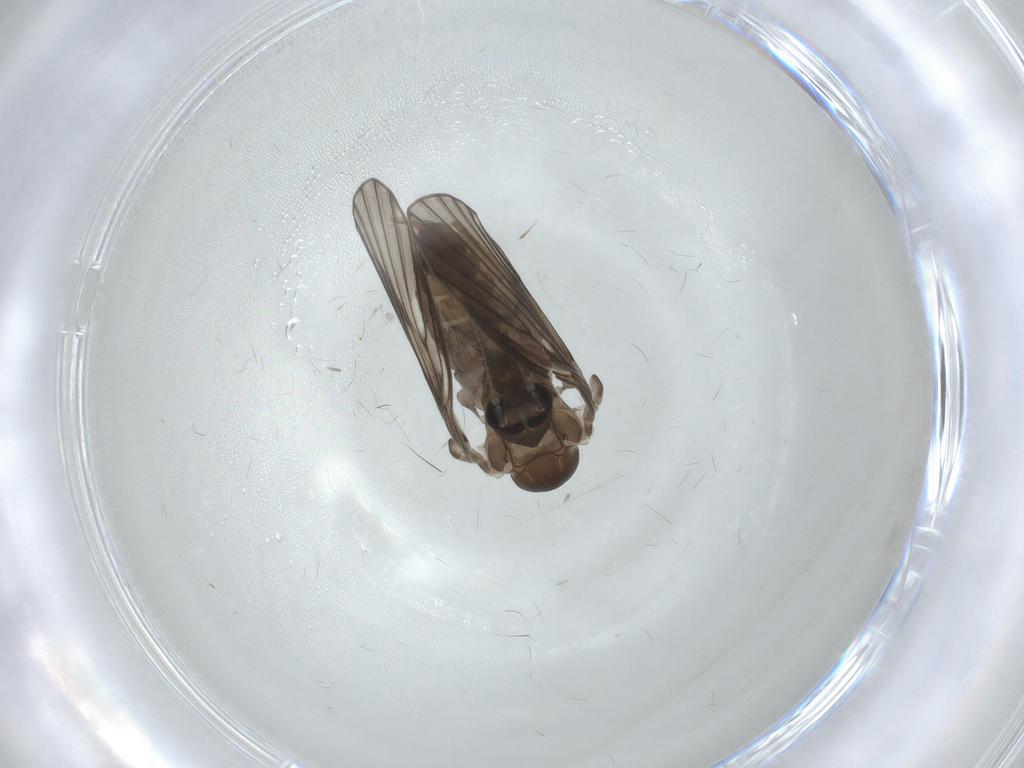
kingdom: Animalia
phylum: Arthropoda
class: Insecta
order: Diptera
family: Psychodidae
